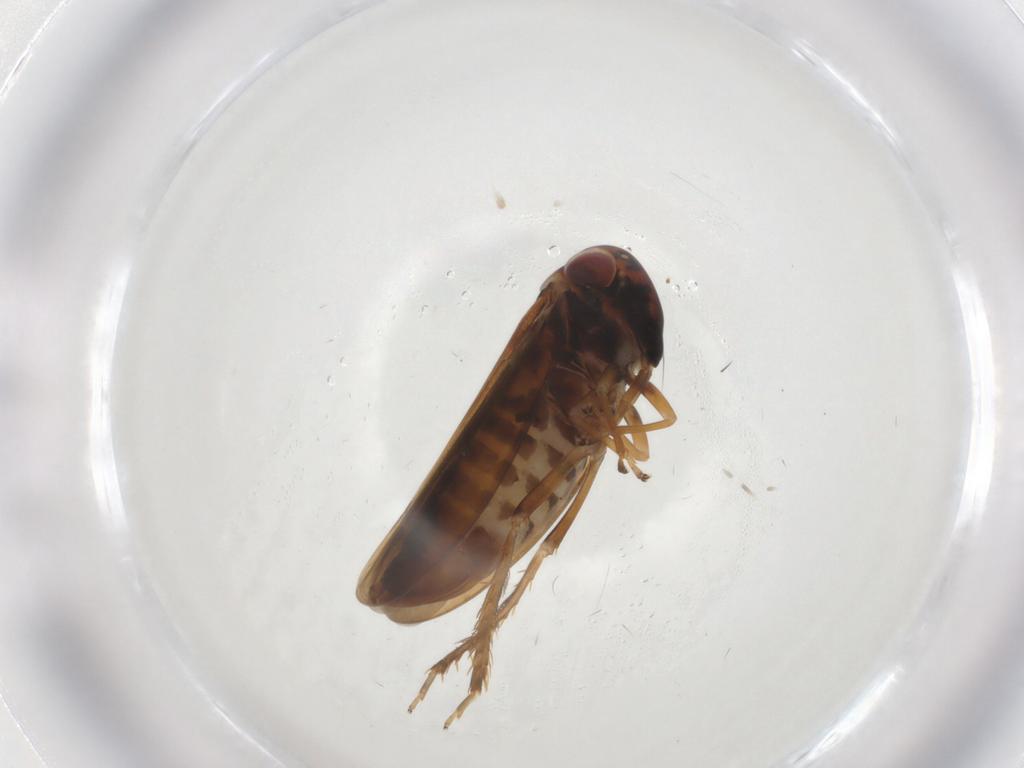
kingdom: Animalia
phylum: Arthropoda
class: Insecta
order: Hemiptera
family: Cicadellidae
